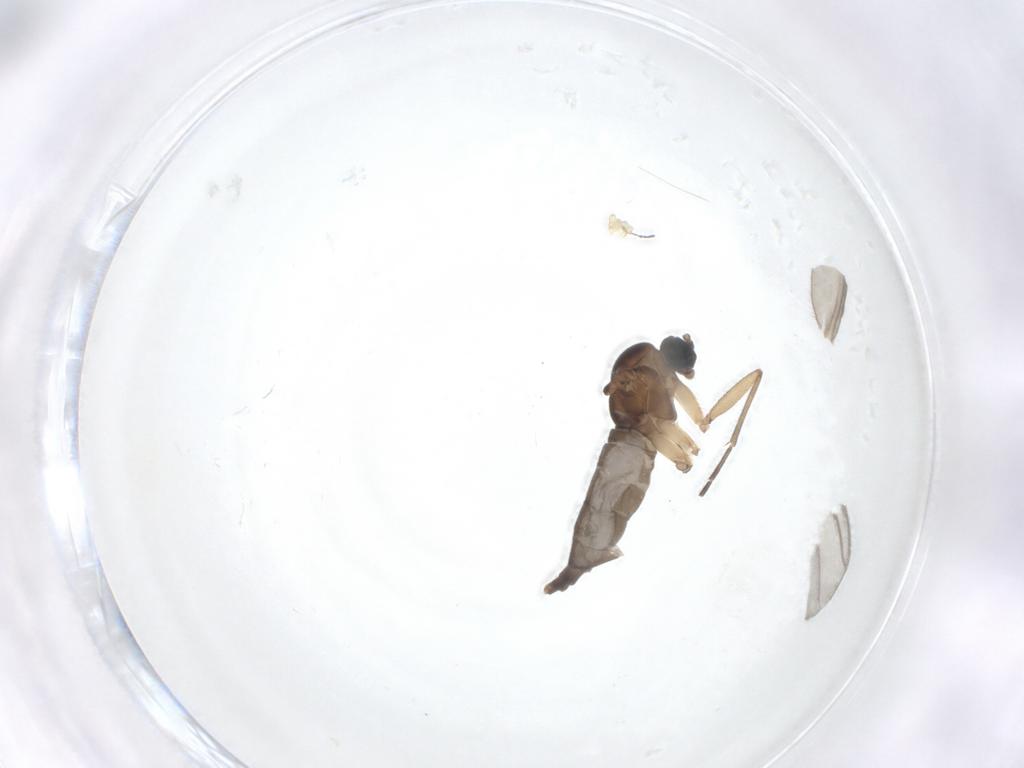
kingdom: Animalia
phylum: Arthropoda
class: Insecta
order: Diptera
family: Sciaridae
